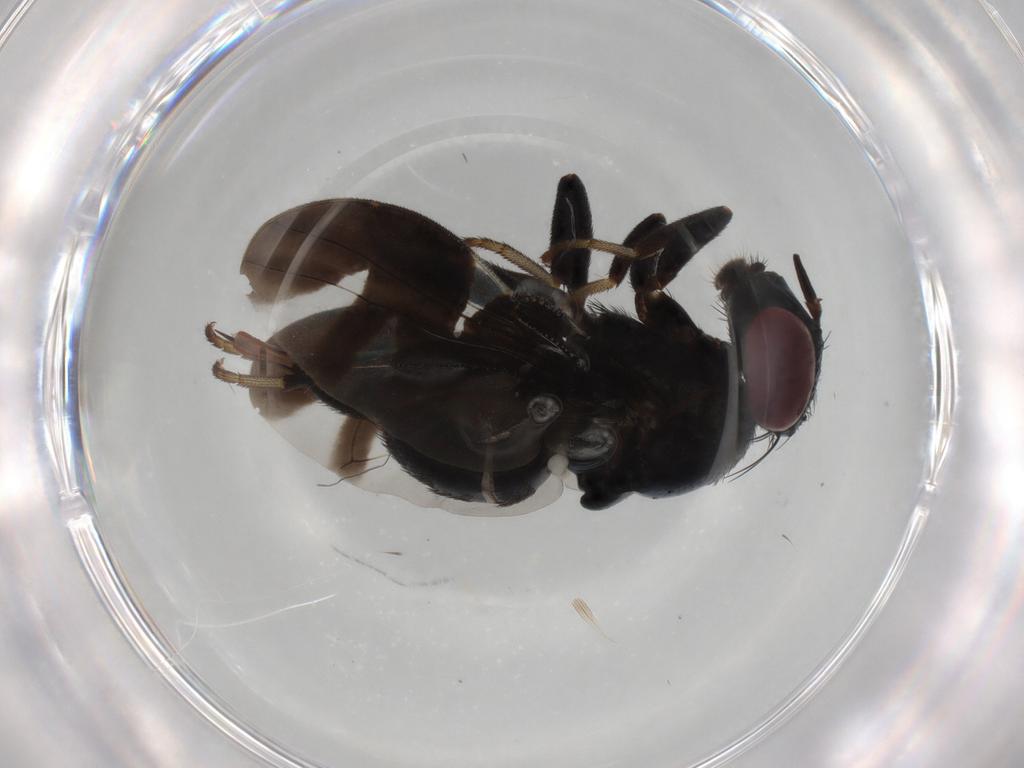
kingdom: Animalia
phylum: Arthropoda
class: Insecta
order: Diptera
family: Tephritidae
